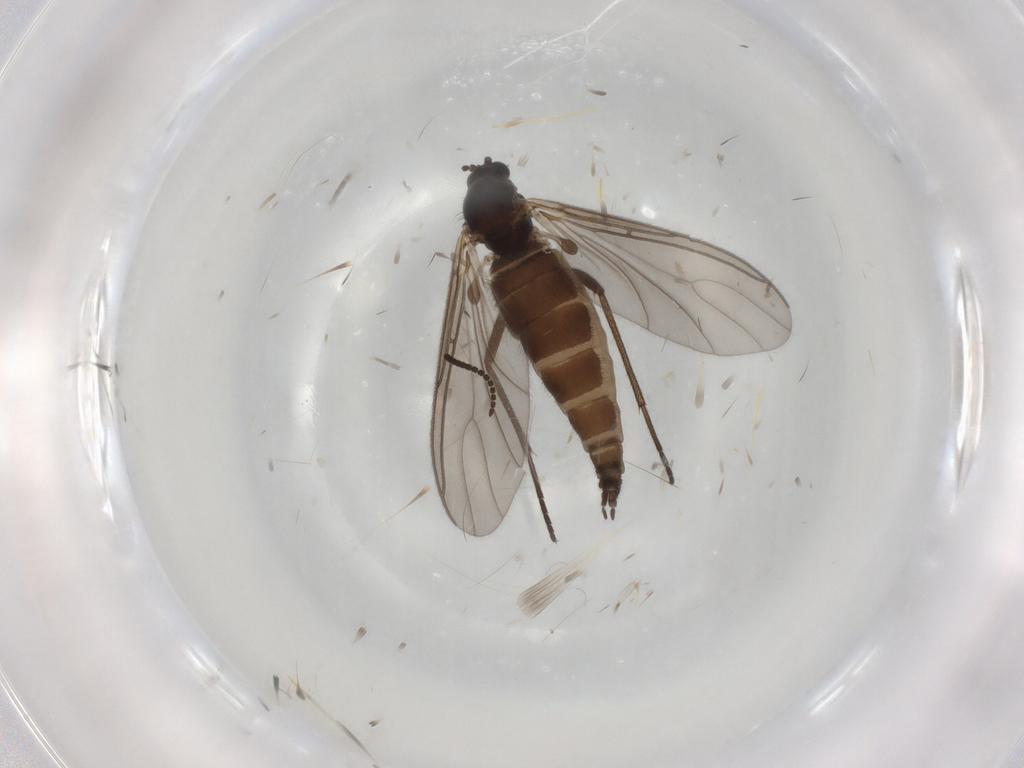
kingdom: Animalia
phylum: Arthropoda
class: Insecta
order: Diptera
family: Sciaridae
